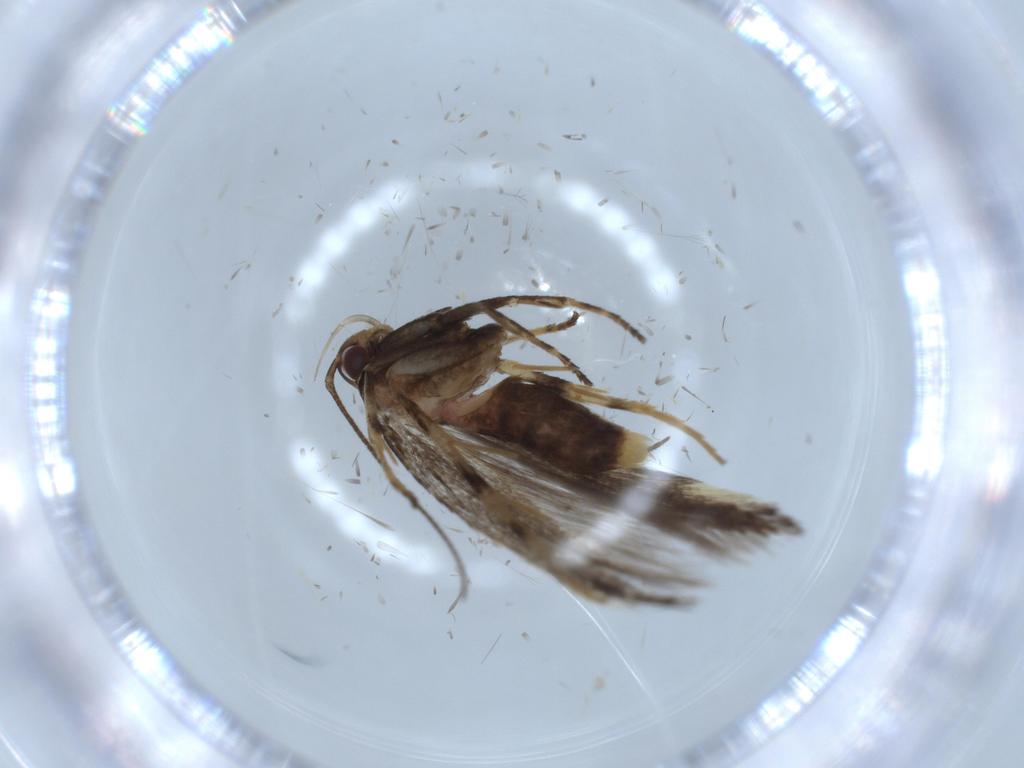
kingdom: Animalia
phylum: Arthropoda
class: Insecta
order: Lepidoptera
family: Cosmopterigidae
